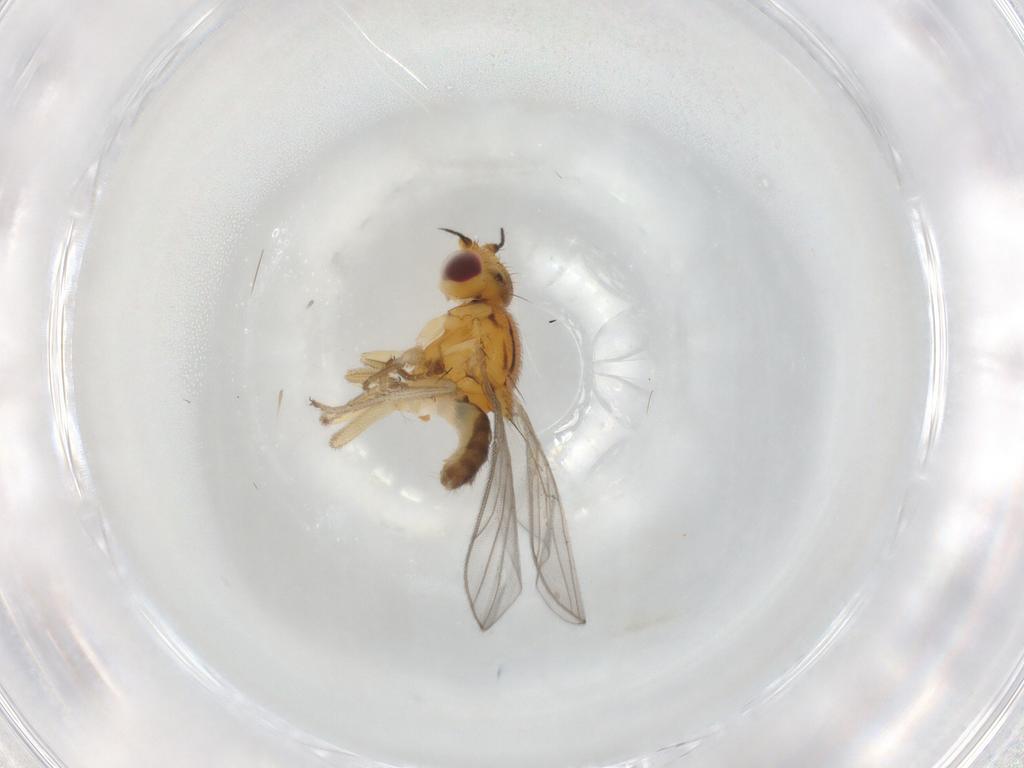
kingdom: Animalia
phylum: Arthropoda
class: Insecta
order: Diptera
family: Chloropidae
